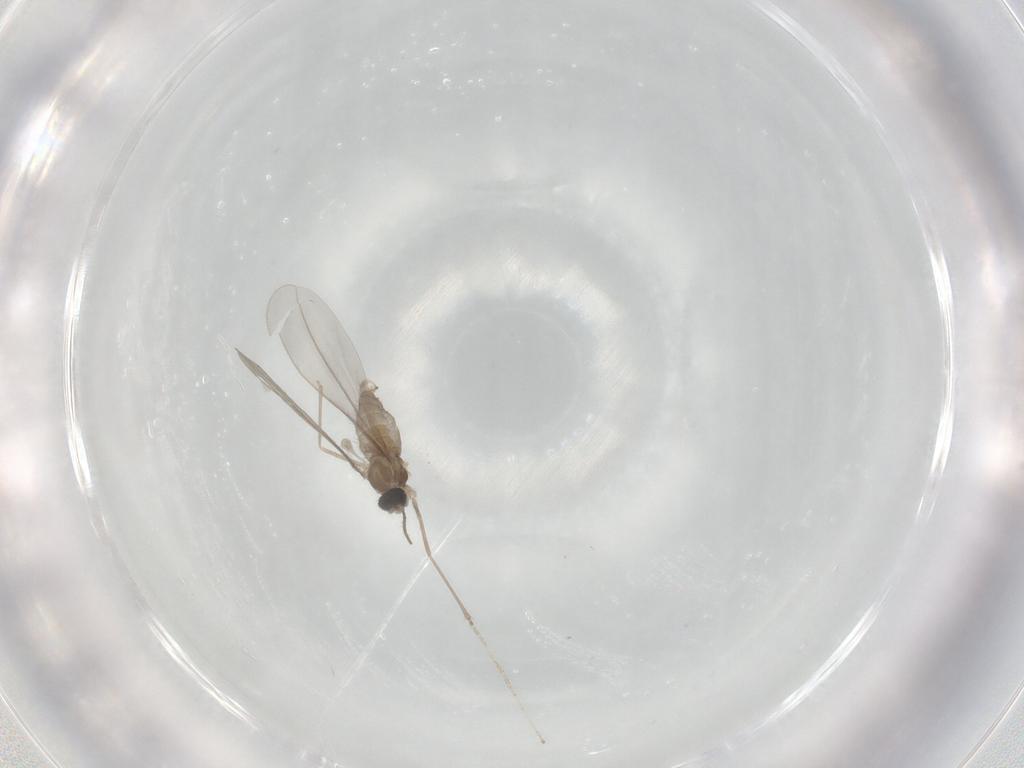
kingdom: Animalia
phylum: Arthropoda
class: Insecta
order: Diptera
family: Cecidomyiidae
